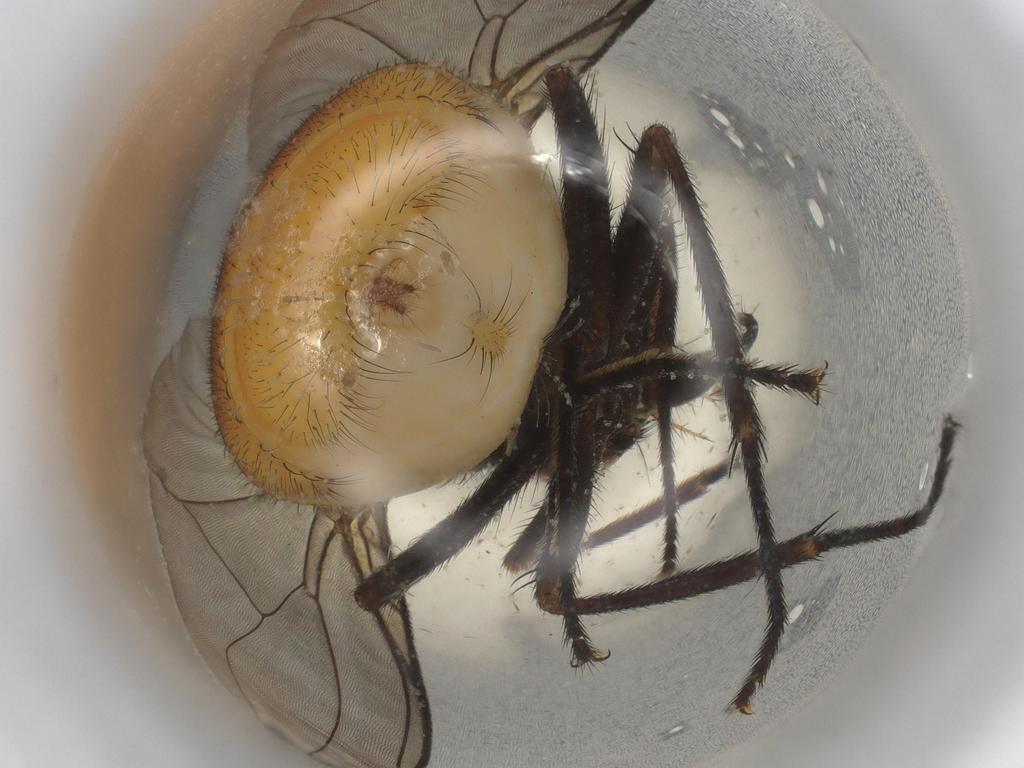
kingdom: Animalia
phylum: Arthropoda
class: Insecta
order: Diptera
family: Muscidae
